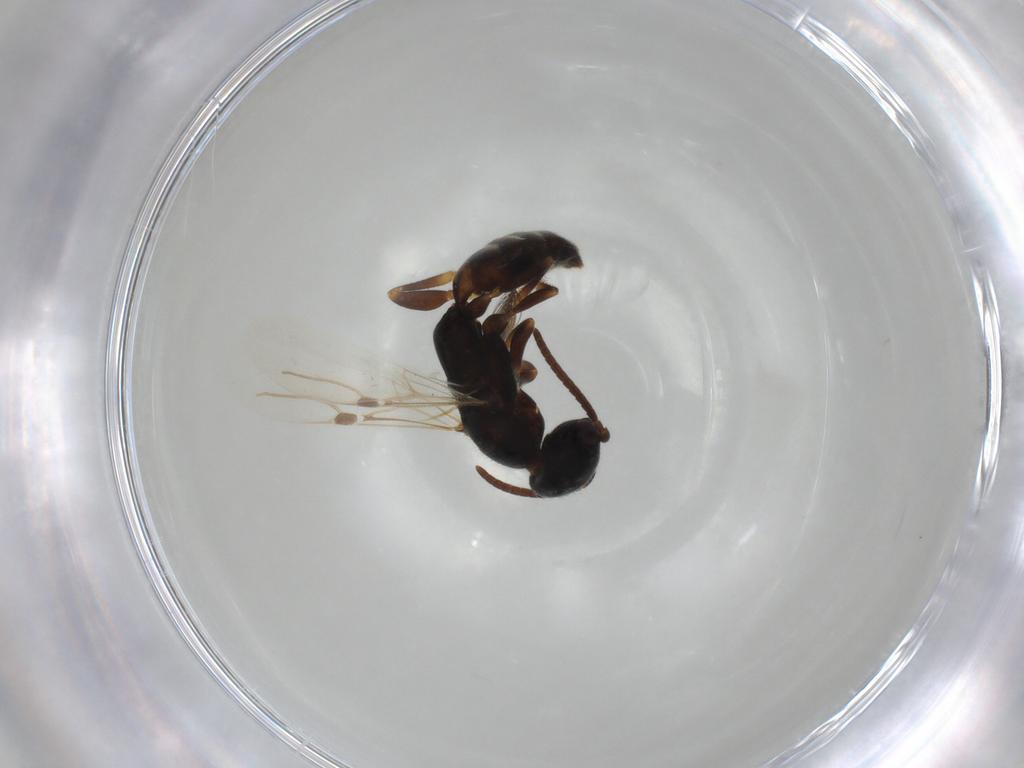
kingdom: Animalia
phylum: Arthropoda
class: Insecta
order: Hymenoptera
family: Bethylidae
